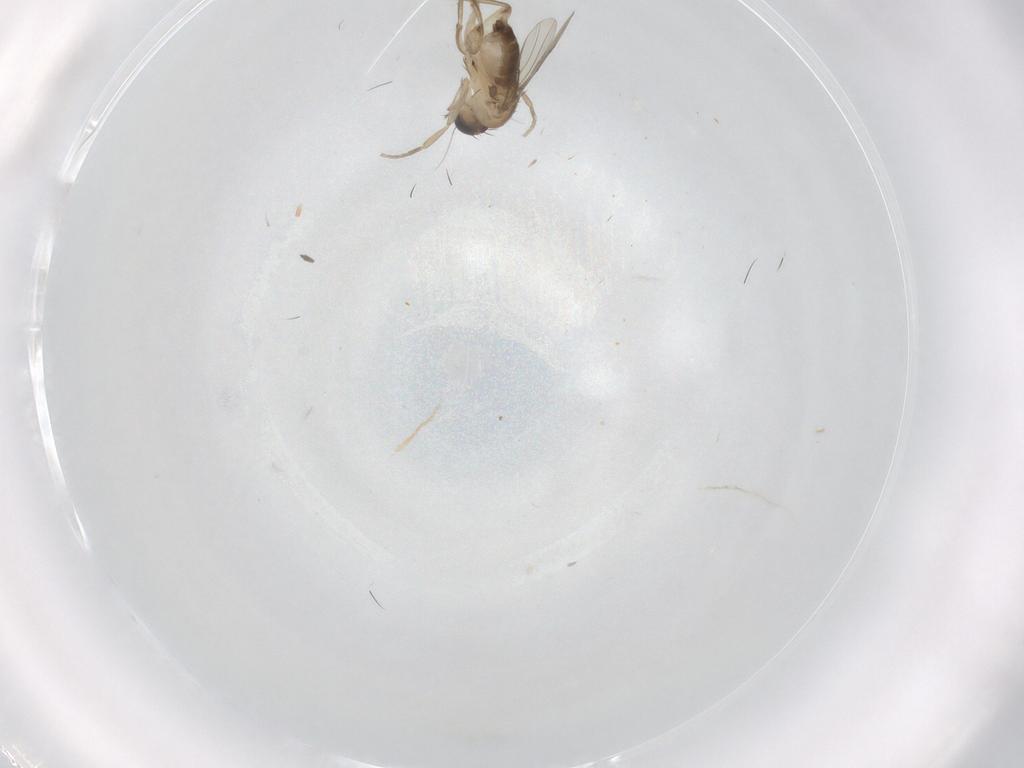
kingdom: Animalia
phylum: Arthropoda
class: Insecta
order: Diptera
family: Phoridae
